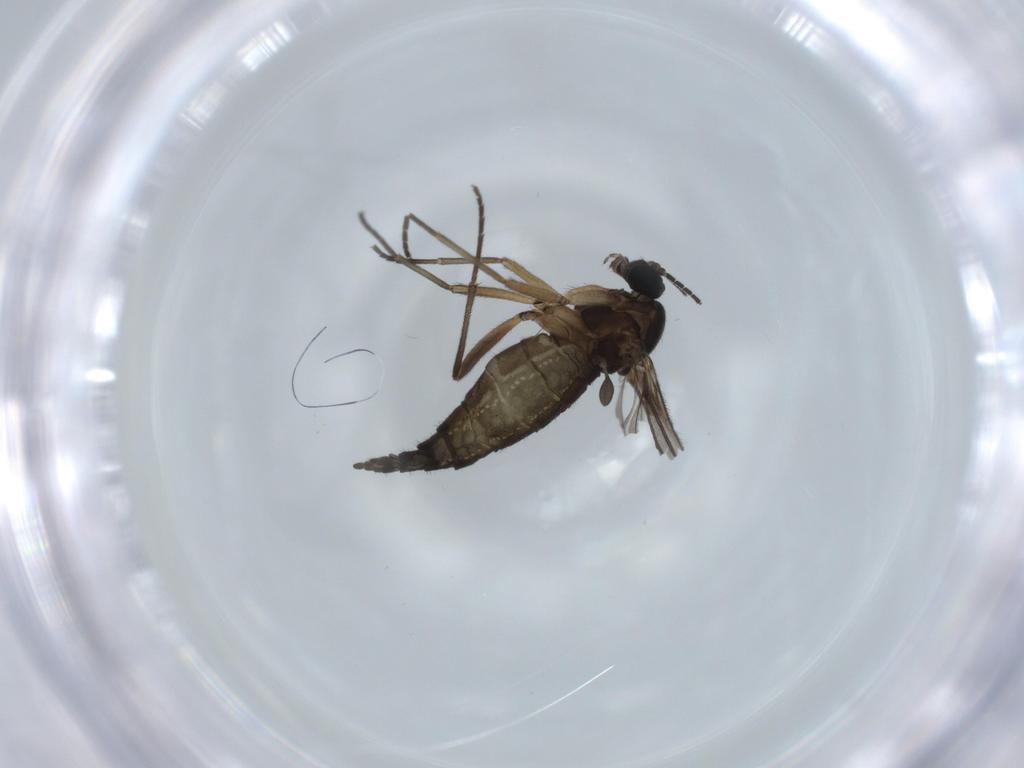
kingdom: Animalia
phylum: Arthropoda
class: Insecta
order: Diptera
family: Sciaridae
